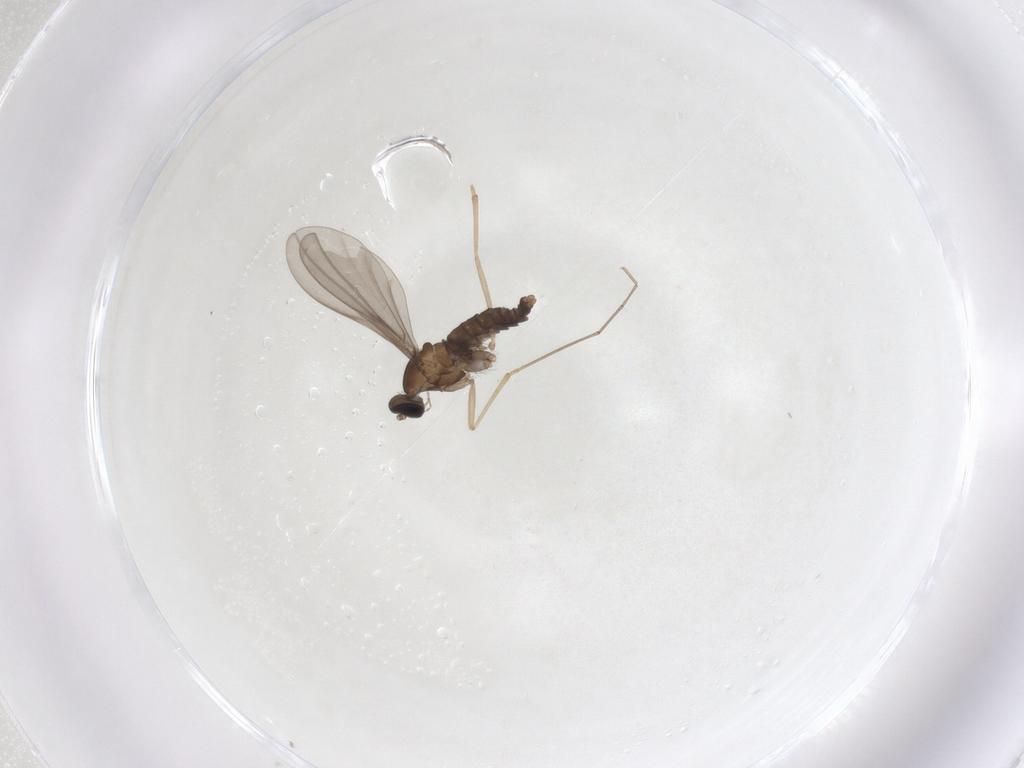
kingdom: Animalia
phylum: Arthropoda
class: Insecta
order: Diptera
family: Cecidomyiidae
